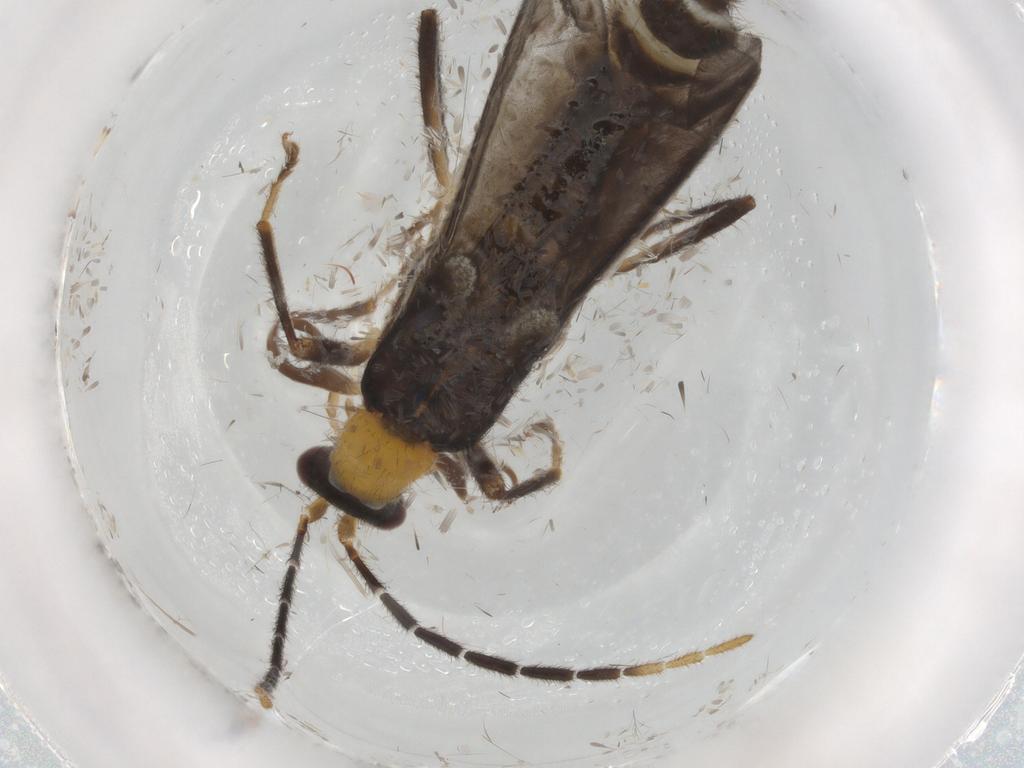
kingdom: Animalia
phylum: Arthropoda
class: Insecta
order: Coleoptera
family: Cantharidae
